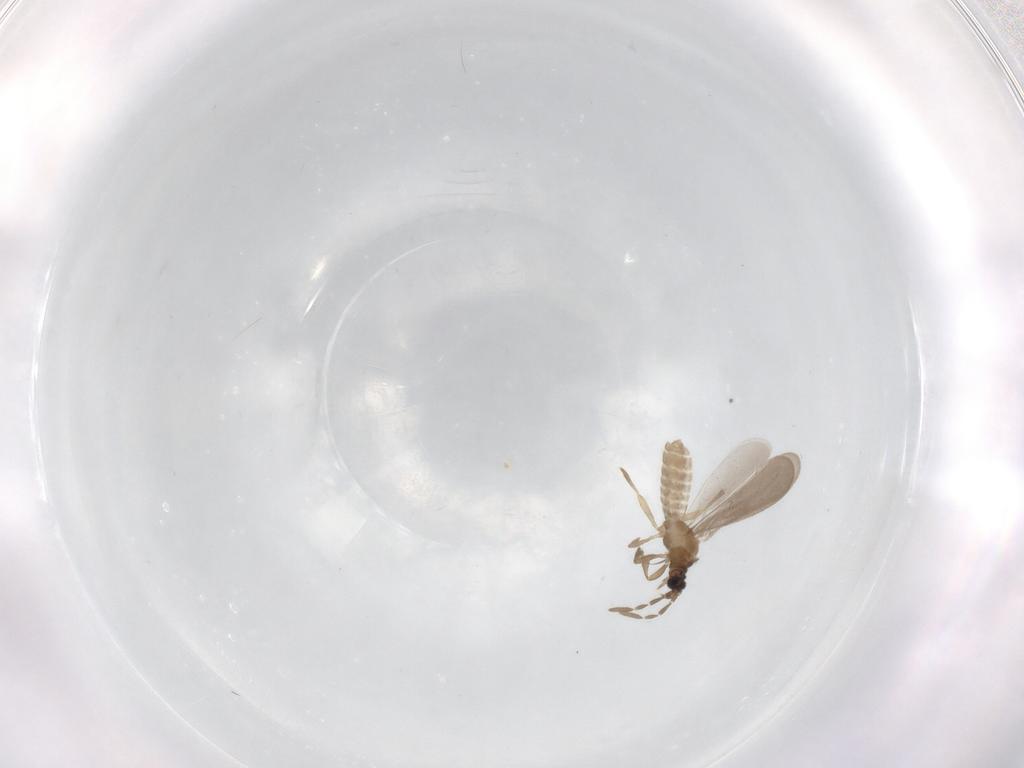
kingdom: Animalia
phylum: Arthropoda
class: Insecta
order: Hemiptera
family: Enicocephalidae
